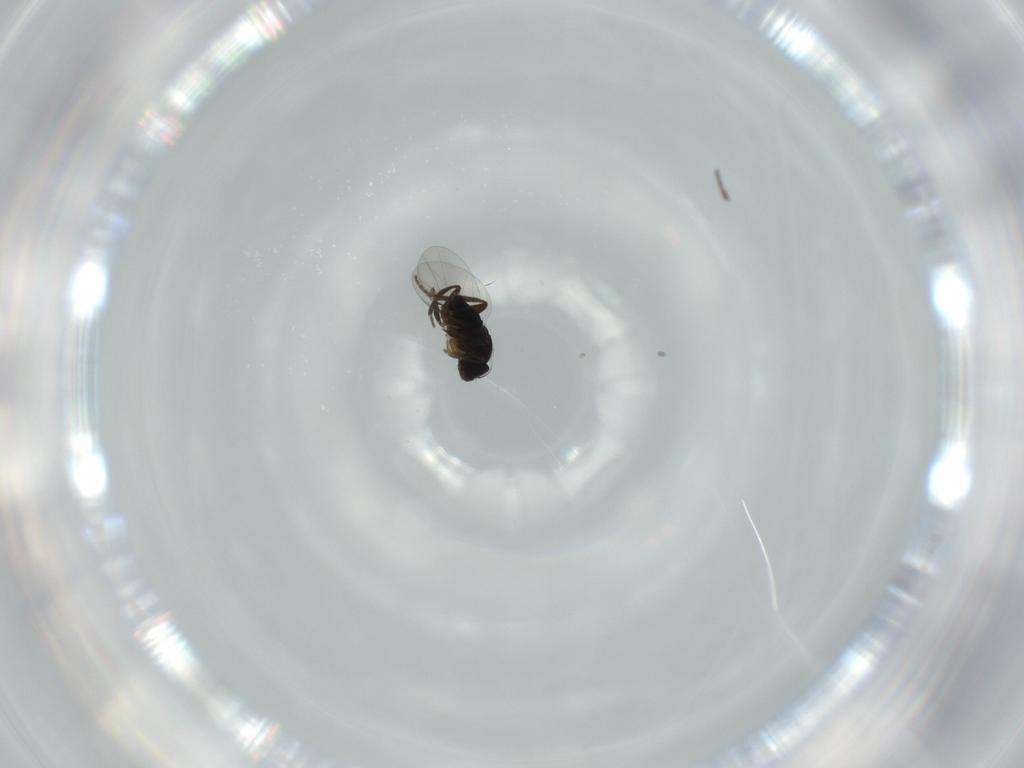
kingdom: Animalia
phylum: Arthropoda
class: Insecta
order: Diptera
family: Phoridae
